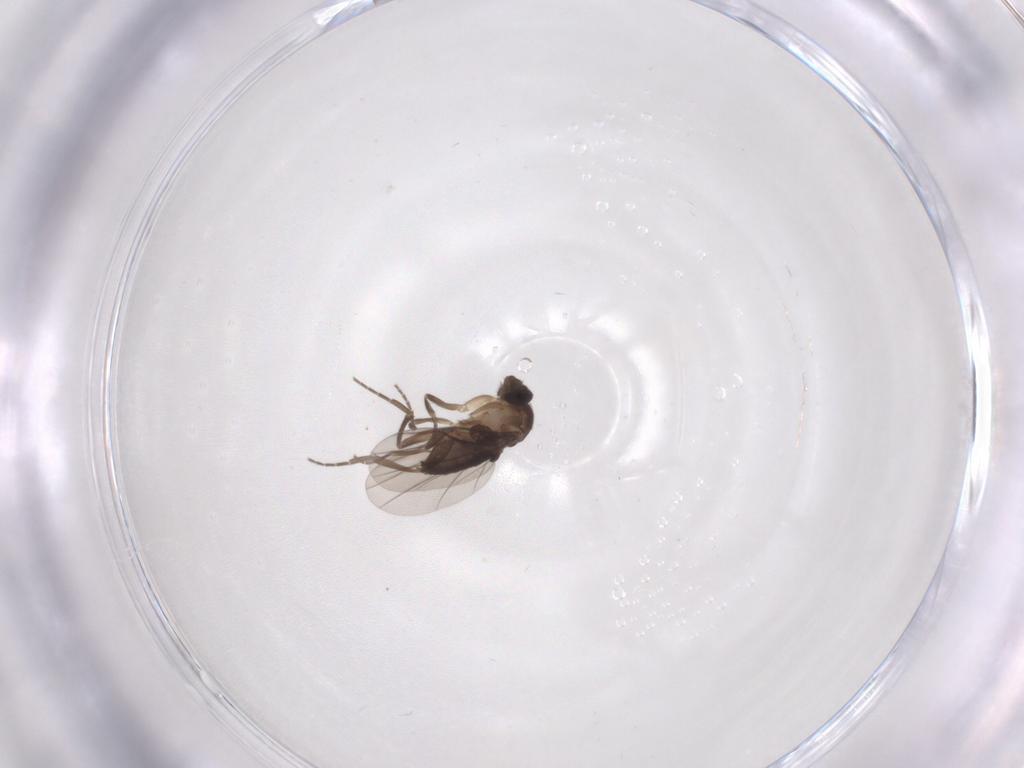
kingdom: Animalia
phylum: Arthropoda
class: Insecta
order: Diptera
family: Phoridae
